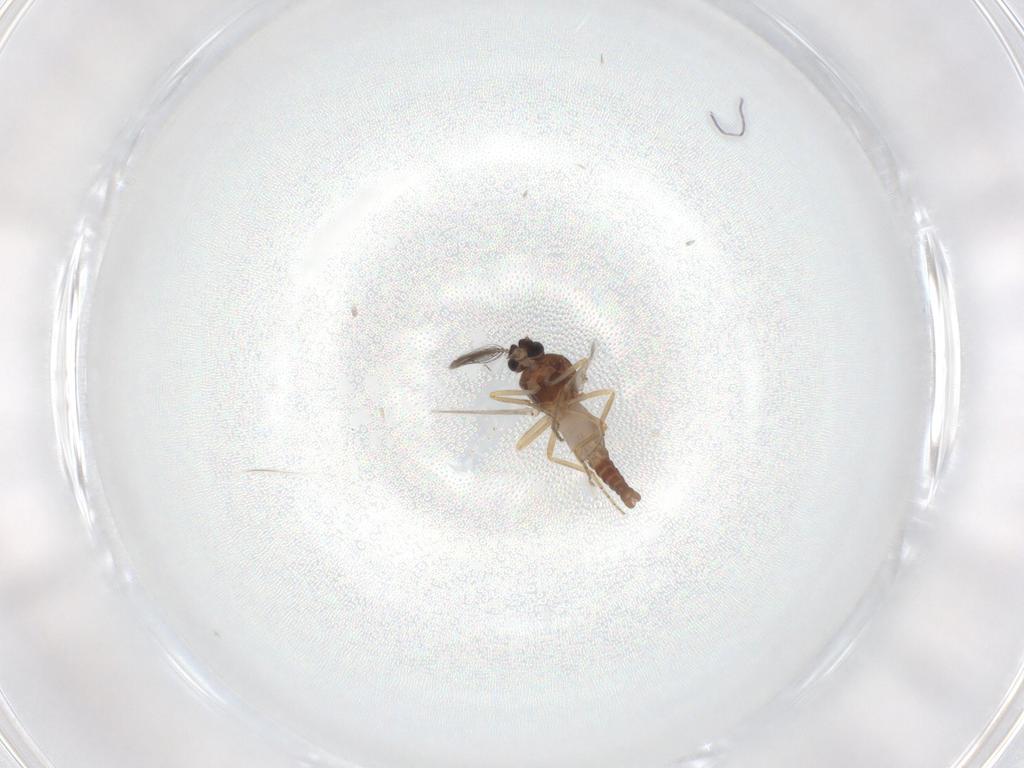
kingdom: Animalia
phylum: Arthropoda
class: Insecta
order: Diptera
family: Ceratopogonidae
